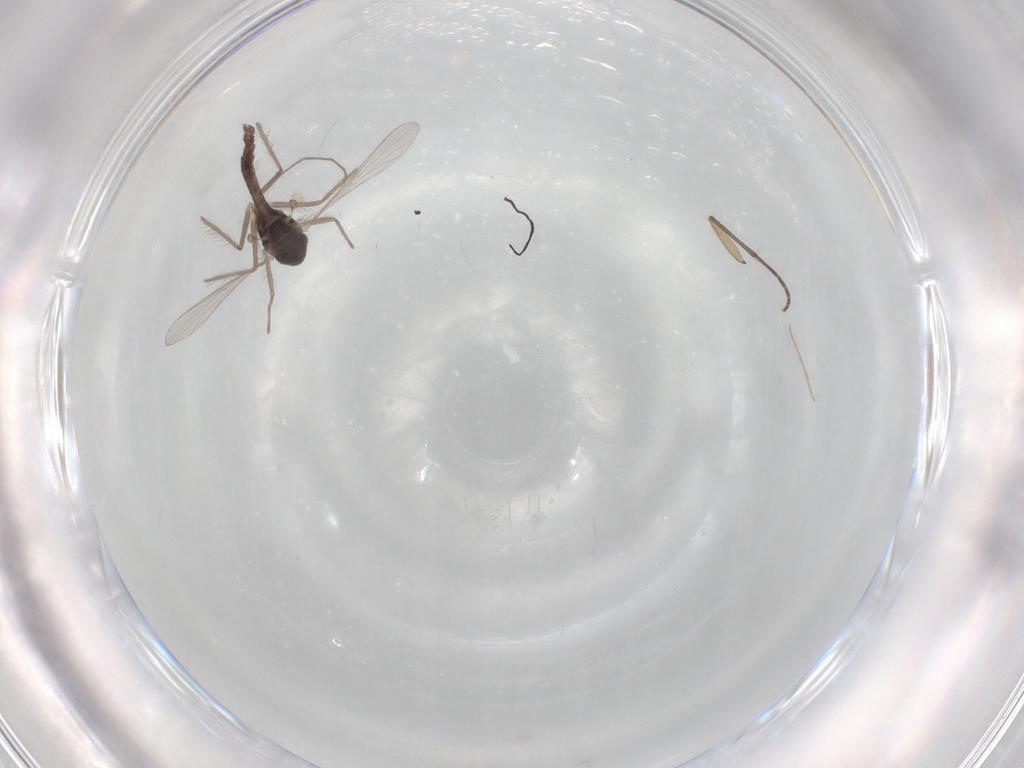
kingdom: Animalia
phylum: Arthropoda
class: Insecta
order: Diptera
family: Chironomidae
